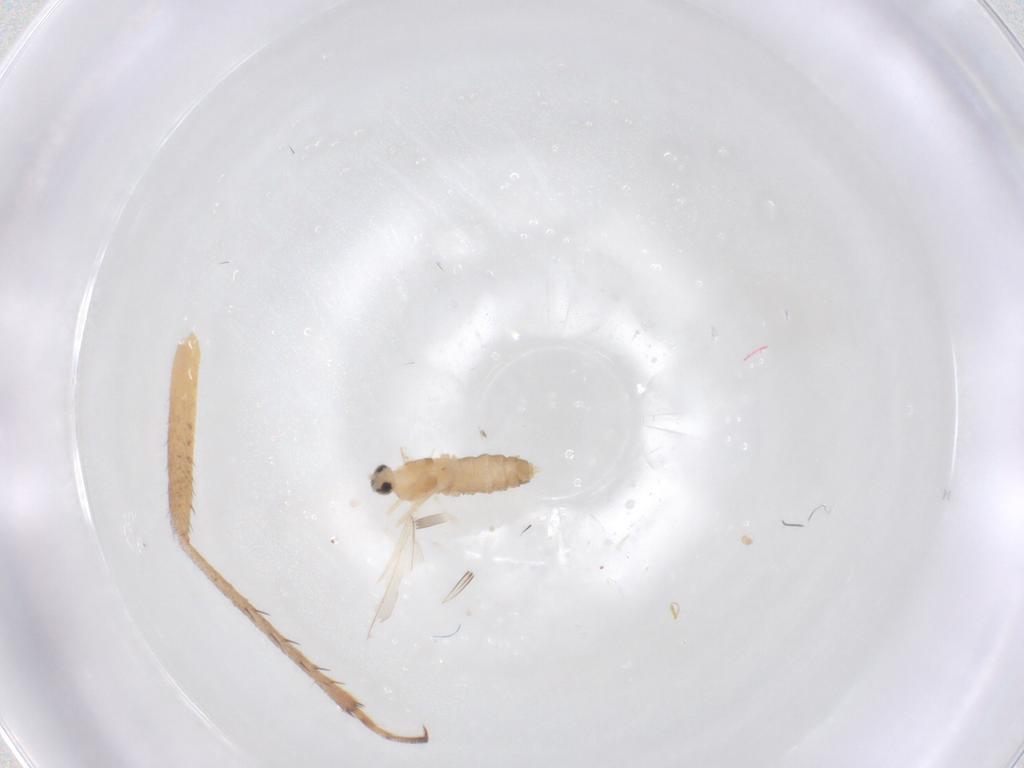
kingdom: Animalia
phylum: Arthropoda
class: Insecta
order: Diptera
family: Cecidomyiidae
